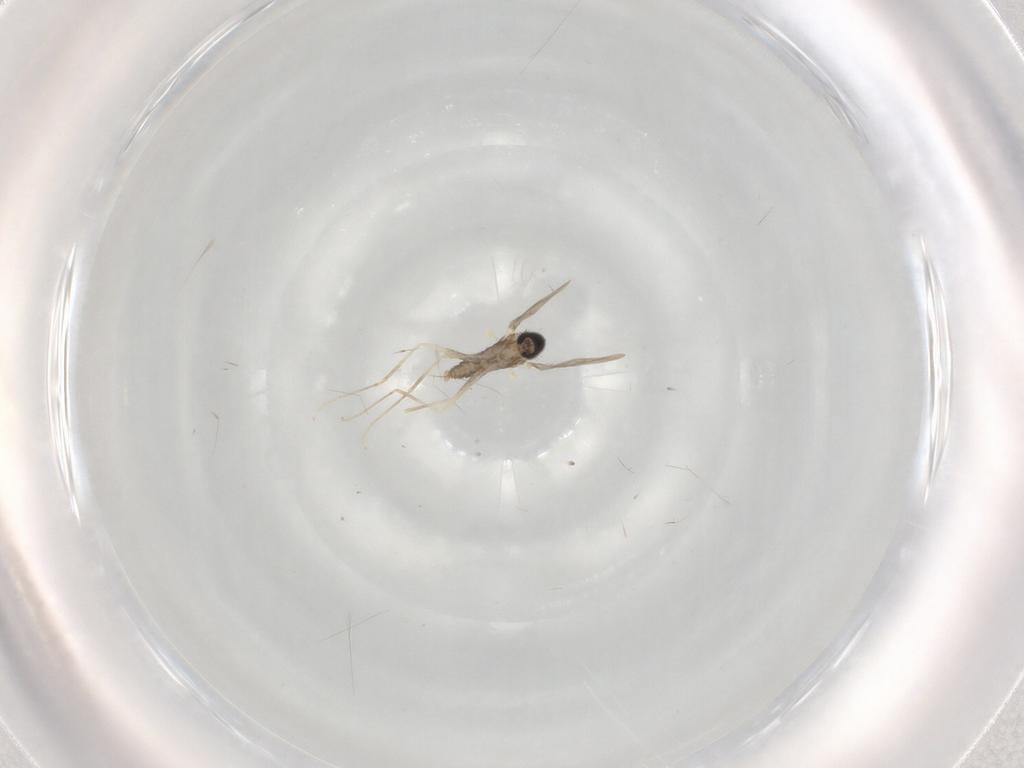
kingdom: Animalia
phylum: Arthropoda
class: Insecta
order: Diptera
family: Cecidomyiidae
